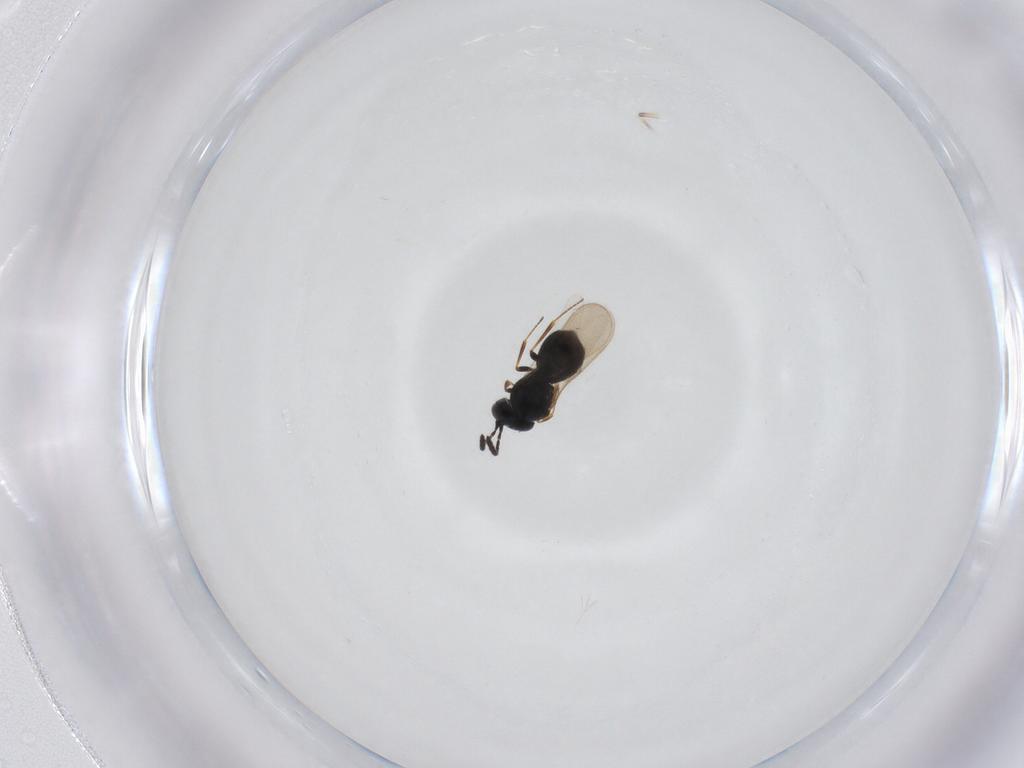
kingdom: Animalia
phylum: Arthropoda
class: Insecta
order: Hymenoptera
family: Scelionidae
